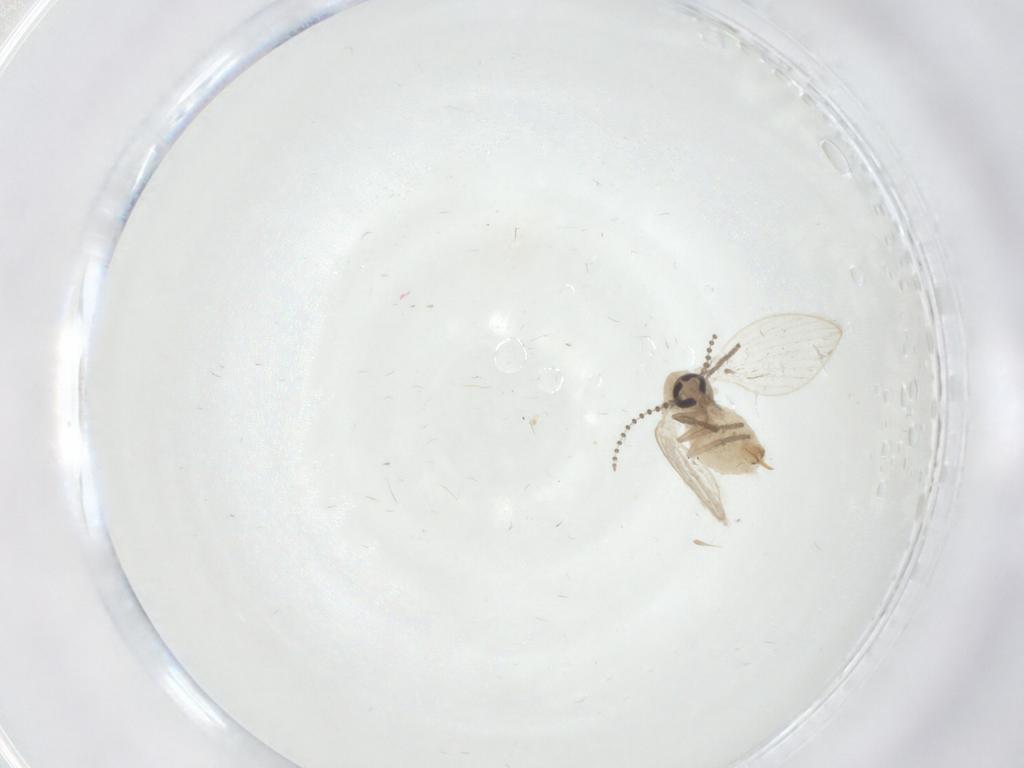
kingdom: Animalia
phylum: Arthropoda
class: Insecta
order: Diptera
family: Psychodidae
